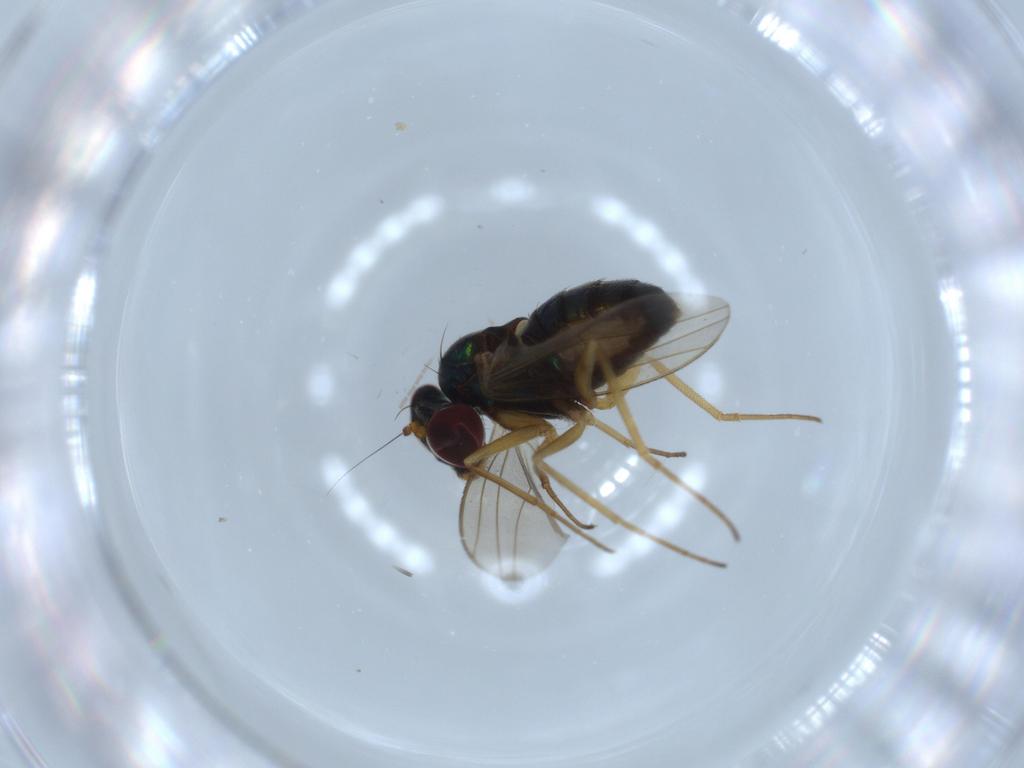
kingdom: Animalia
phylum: Arthropoda
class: Insecta
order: Diptera
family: Dolichopodidae
